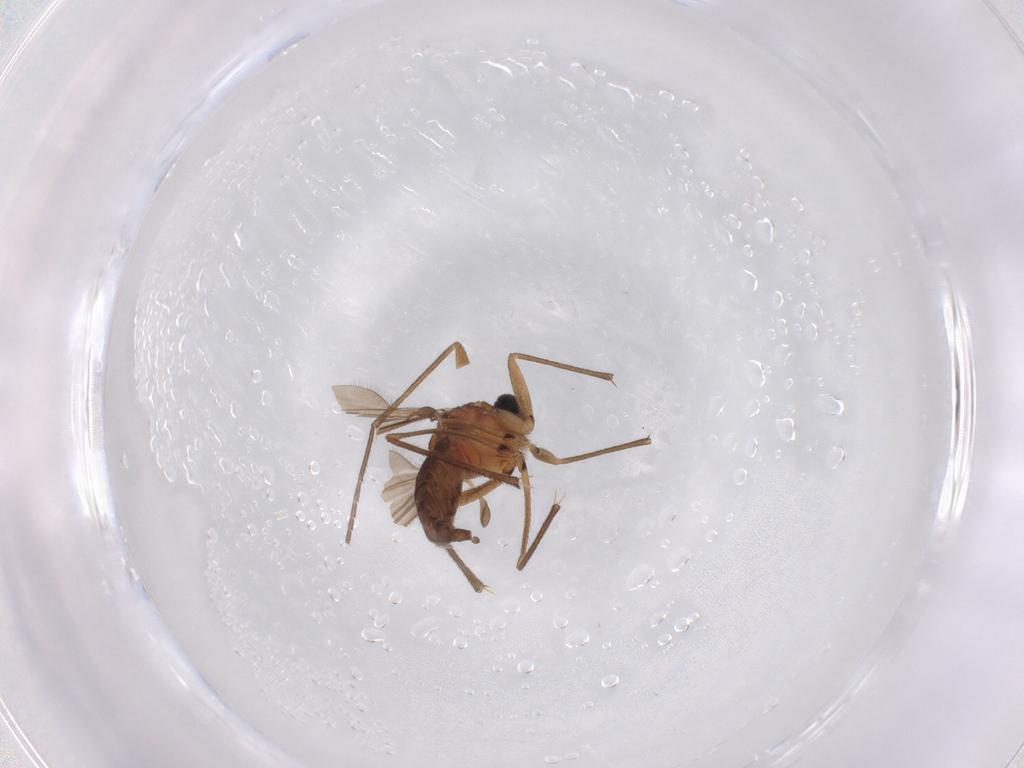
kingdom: Animalia
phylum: Arthropoda
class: Insecta
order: Diptera
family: Sciaridae
